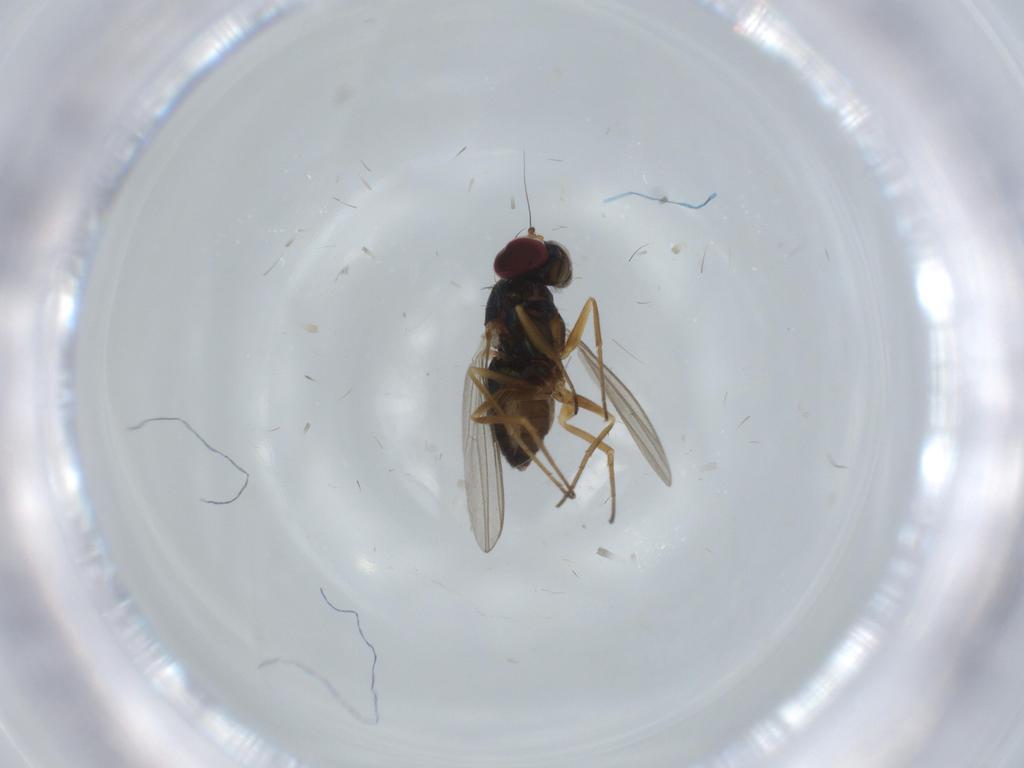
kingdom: Animalia
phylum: Arthropoda
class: Insecta
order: Diptera
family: Dolichopodidae
